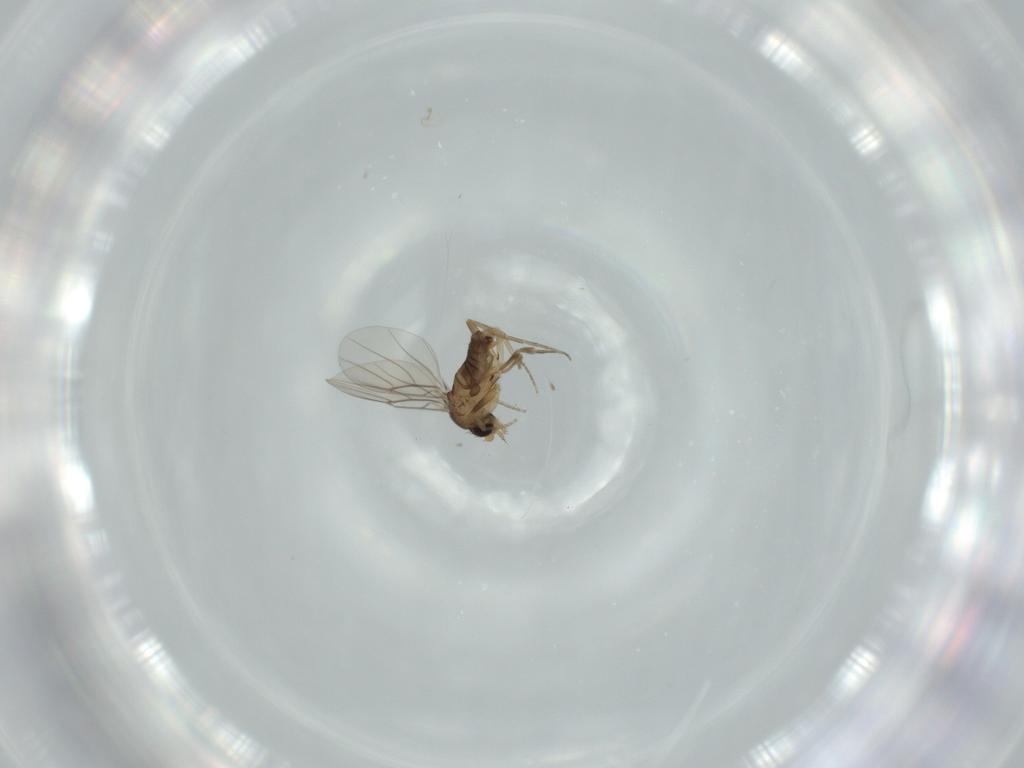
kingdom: Animalia
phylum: Arthropoda
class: Insecta
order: Diptera
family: Phoridae
